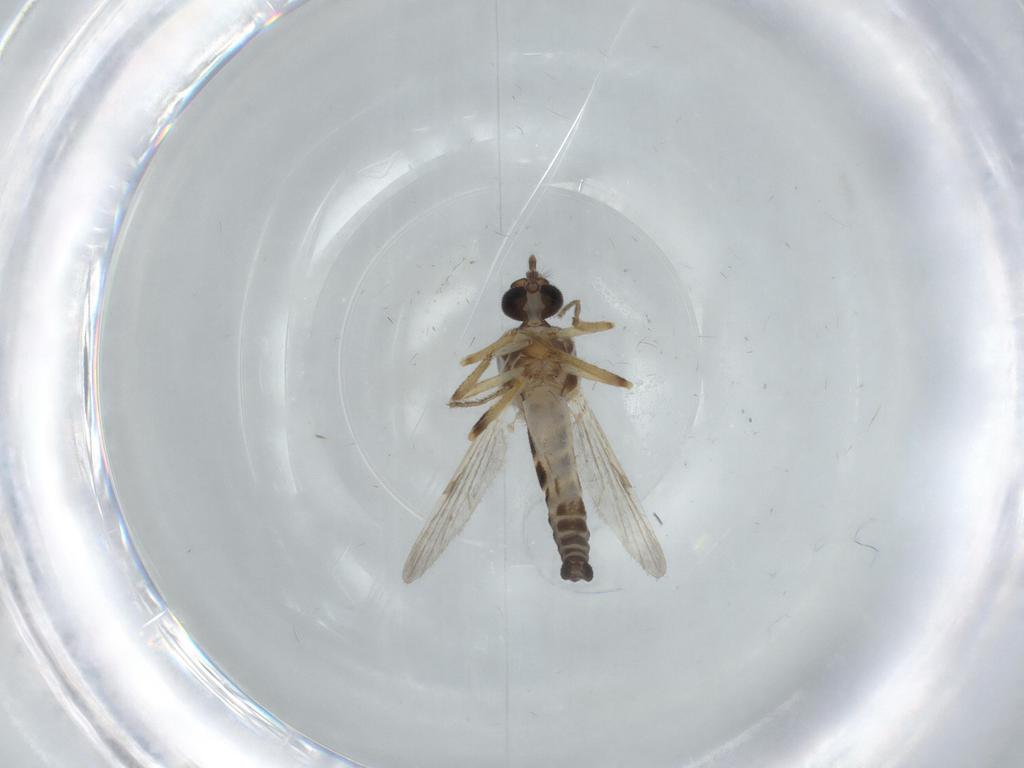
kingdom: Animalia
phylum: Arthropoda
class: Insecta
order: Diptera
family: Ceratopogonidae
